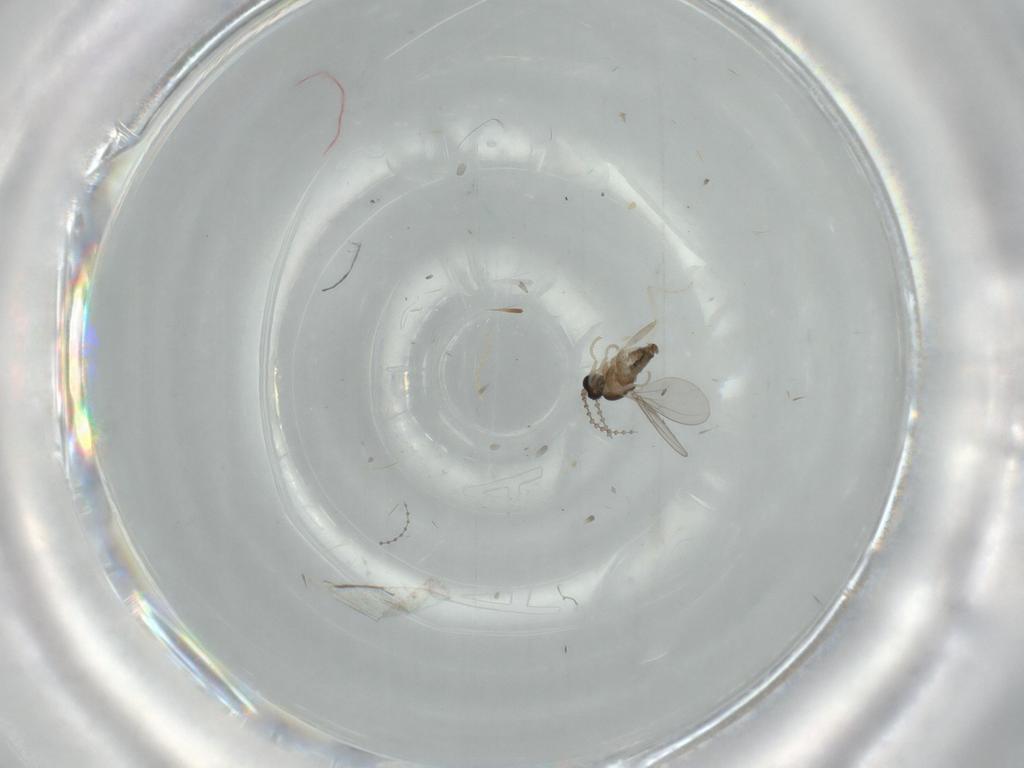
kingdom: Animalia
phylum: Arthropoda
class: Insecta
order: Diptera
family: Cecidomyiidae
